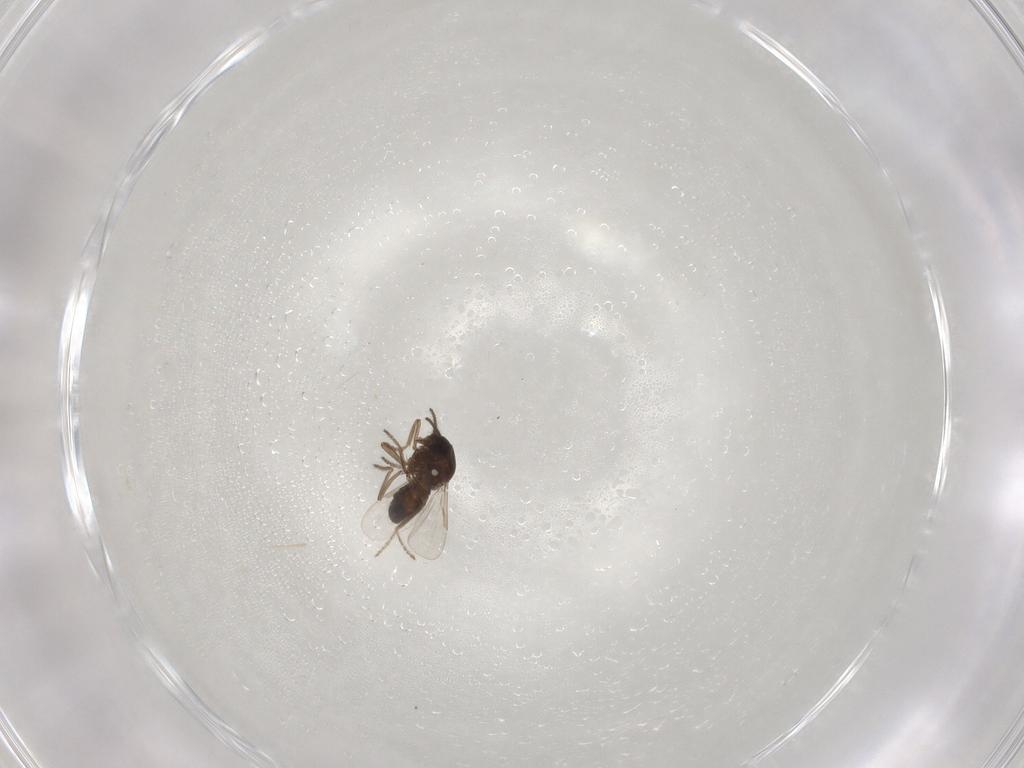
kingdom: Animalia
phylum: Arthropoda
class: Insecta
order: Diptera
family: Ceratopogonidae
